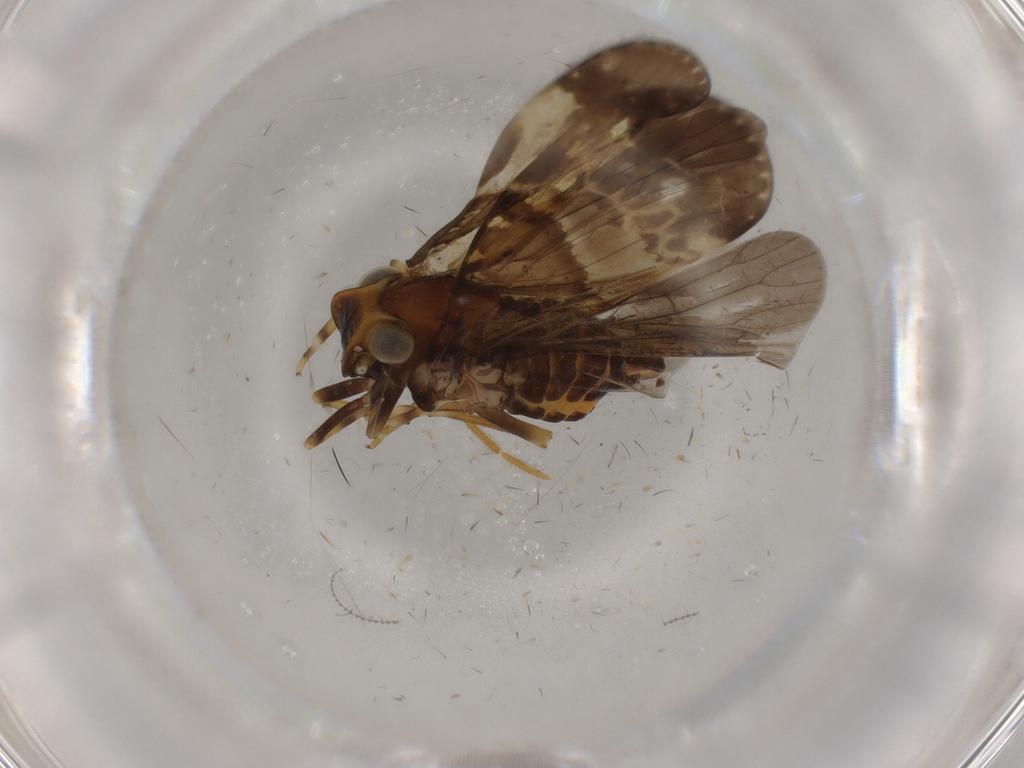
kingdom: Animalia
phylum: Arthropoda
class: Insecta
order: Hemiptera
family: Cixiidae
